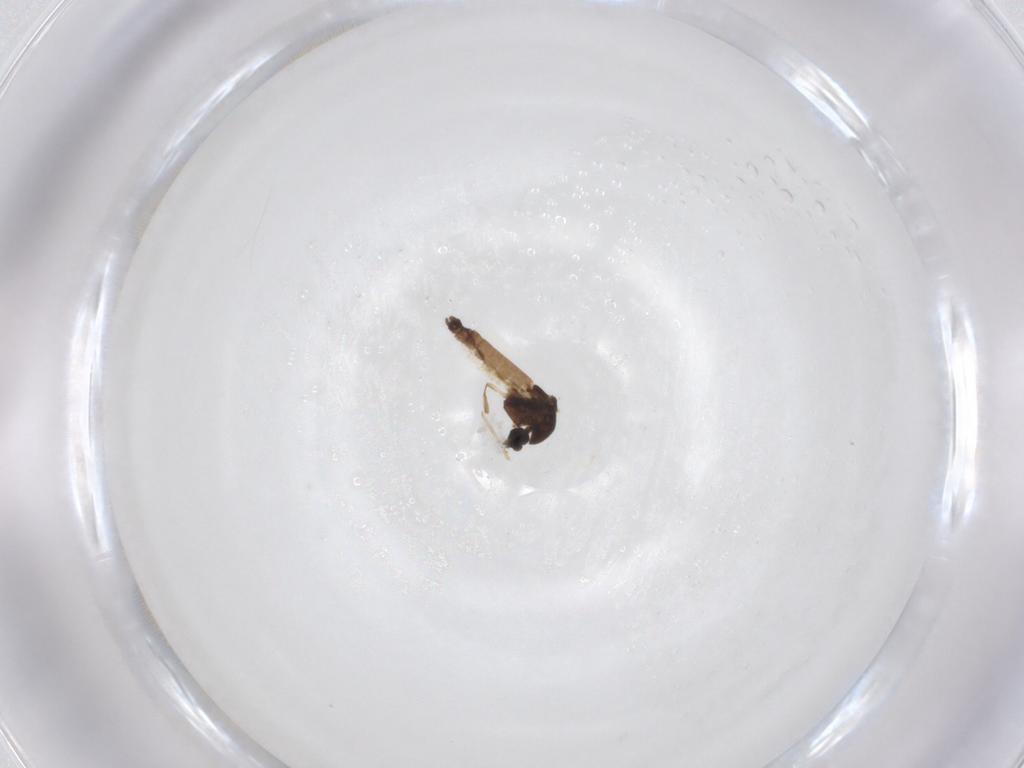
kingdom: Animalia
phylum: Arthropoda
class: Insecta
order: Diptera
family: Chironomidae
